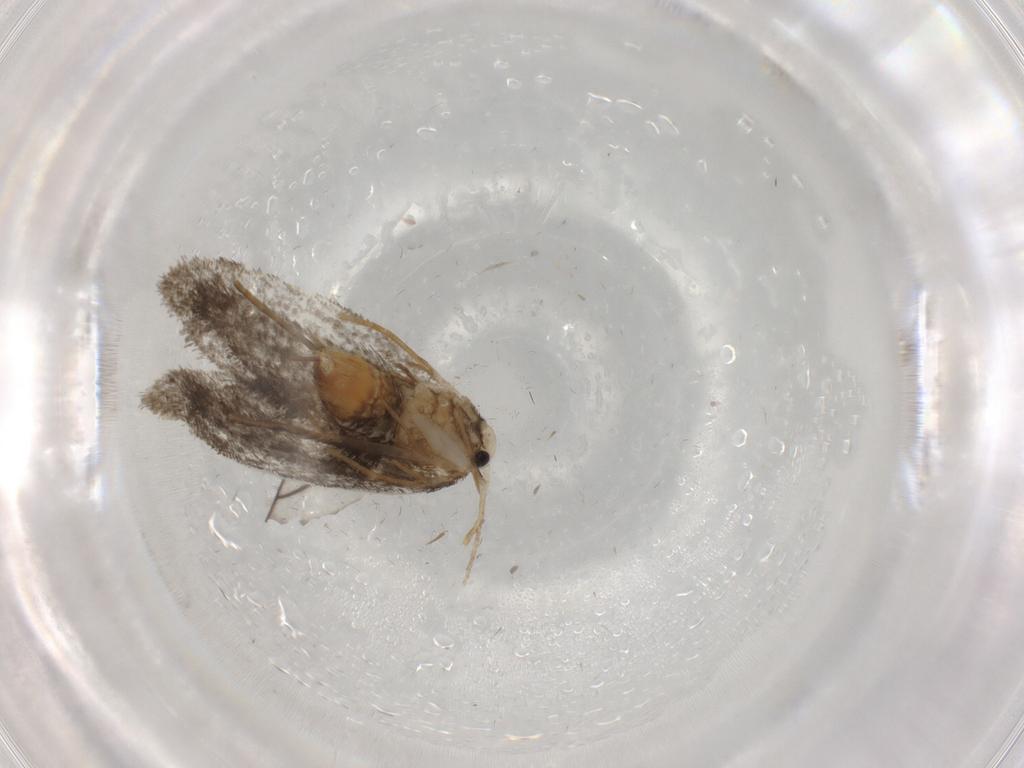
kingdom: Animalia
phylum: Arthropoda
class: Insecta
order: Lepidoptera
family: Psychidae
